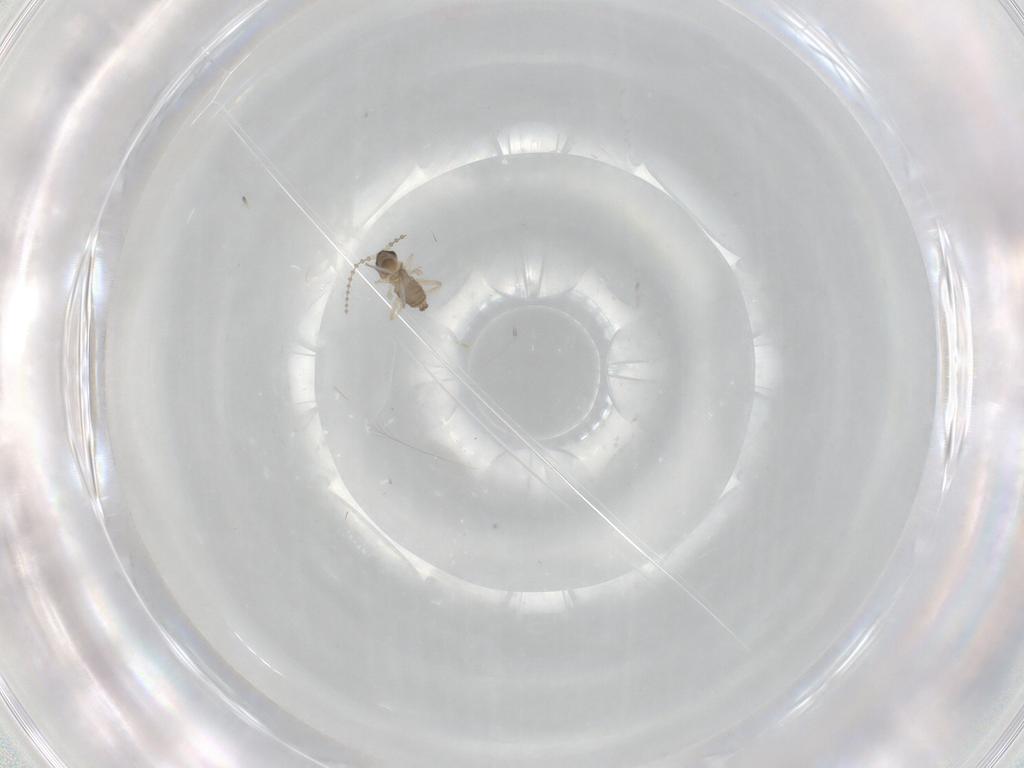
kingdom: Animalia
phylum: Arthropoda
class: Insecta
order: Diptera
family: Cecidomyiidae
